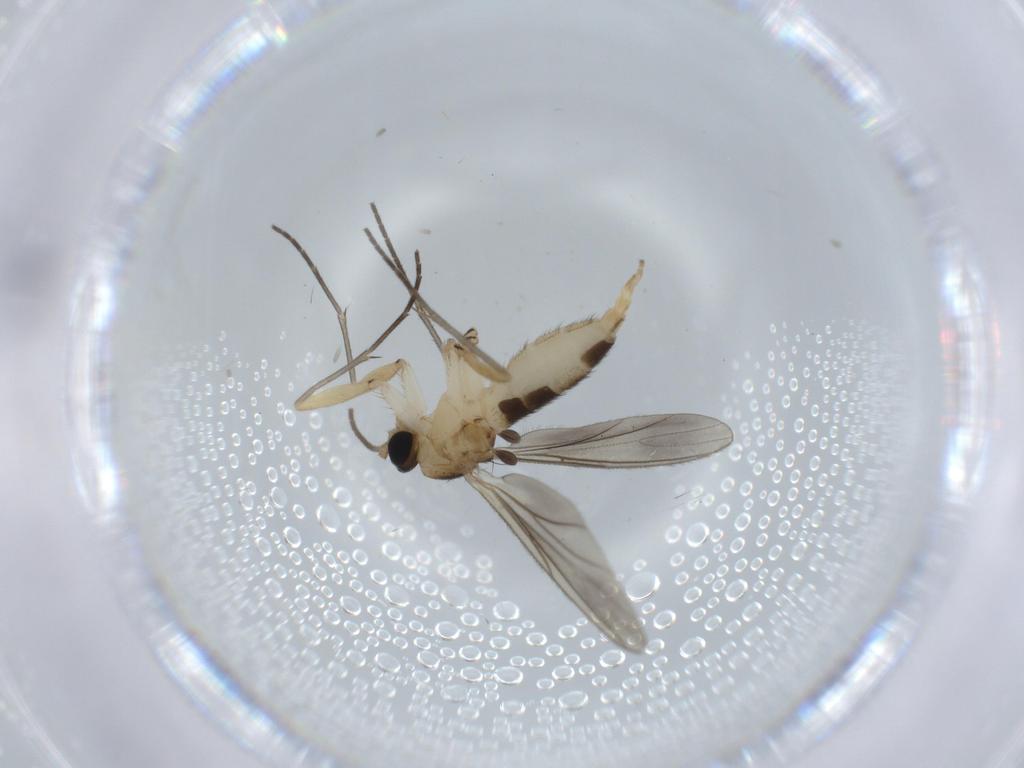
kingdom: Animalia
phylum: Arthropoda
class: Insecta
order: Diptera
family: Sciaridae
